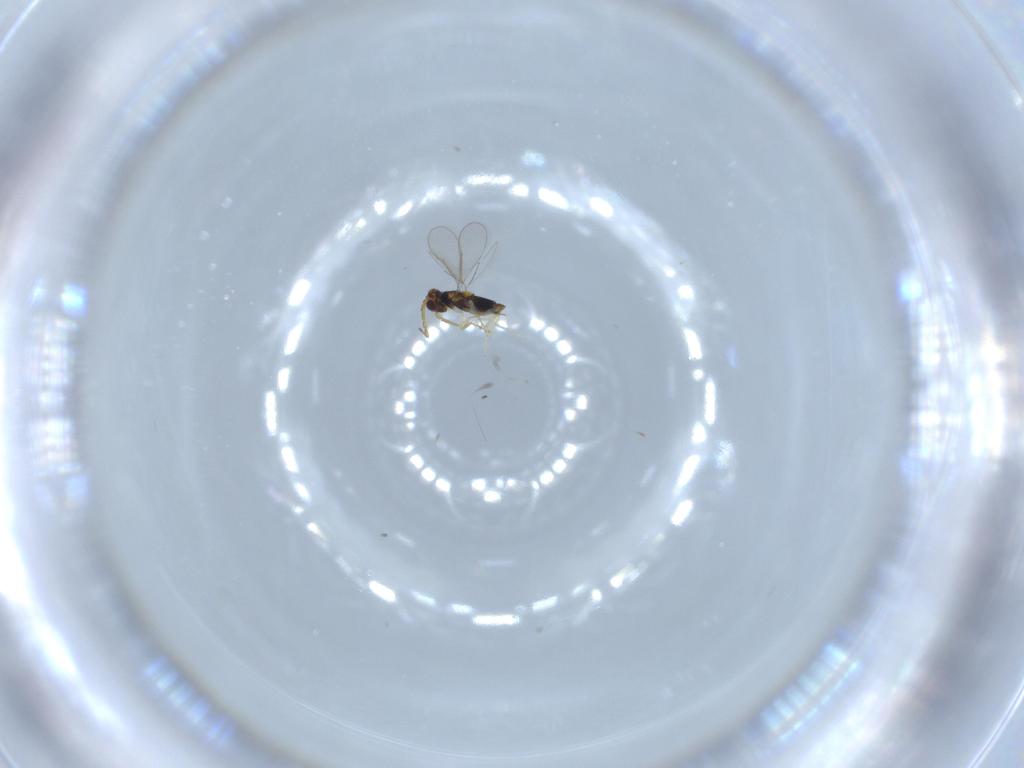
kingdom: Animalia
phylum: Arthropoda
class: Insecta
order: Hymenoptera
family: Aphelinidae
